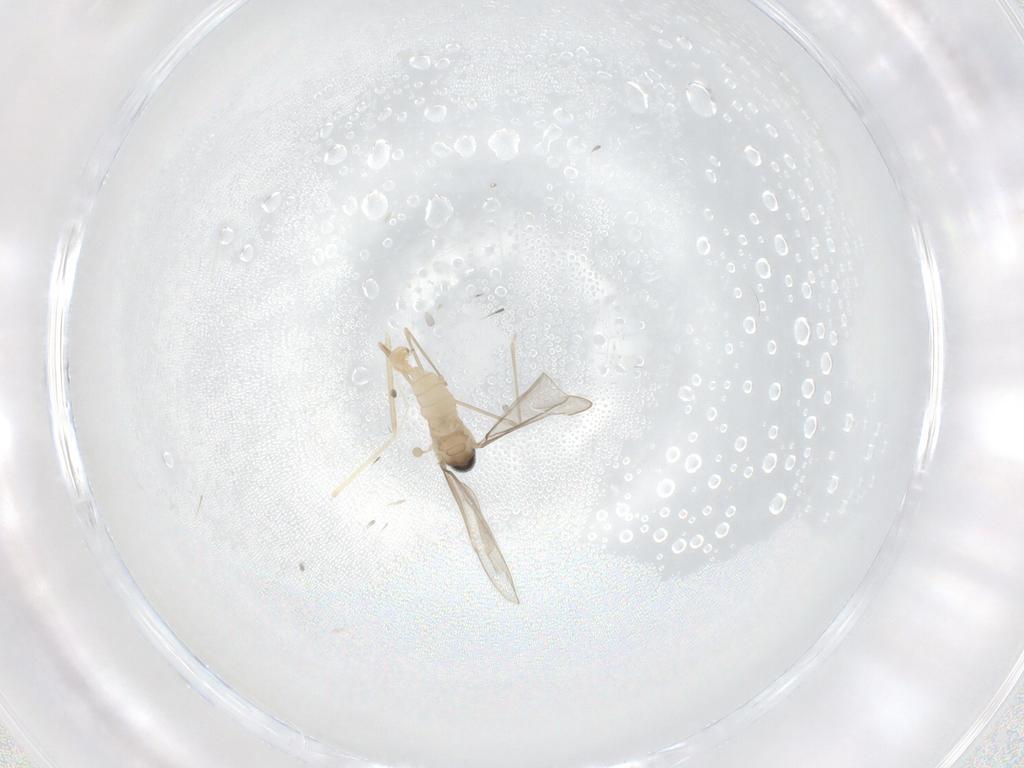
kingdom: Animalia
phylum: Arthropoda
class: Insecta
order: Diptera
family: Cecidomyiidae
